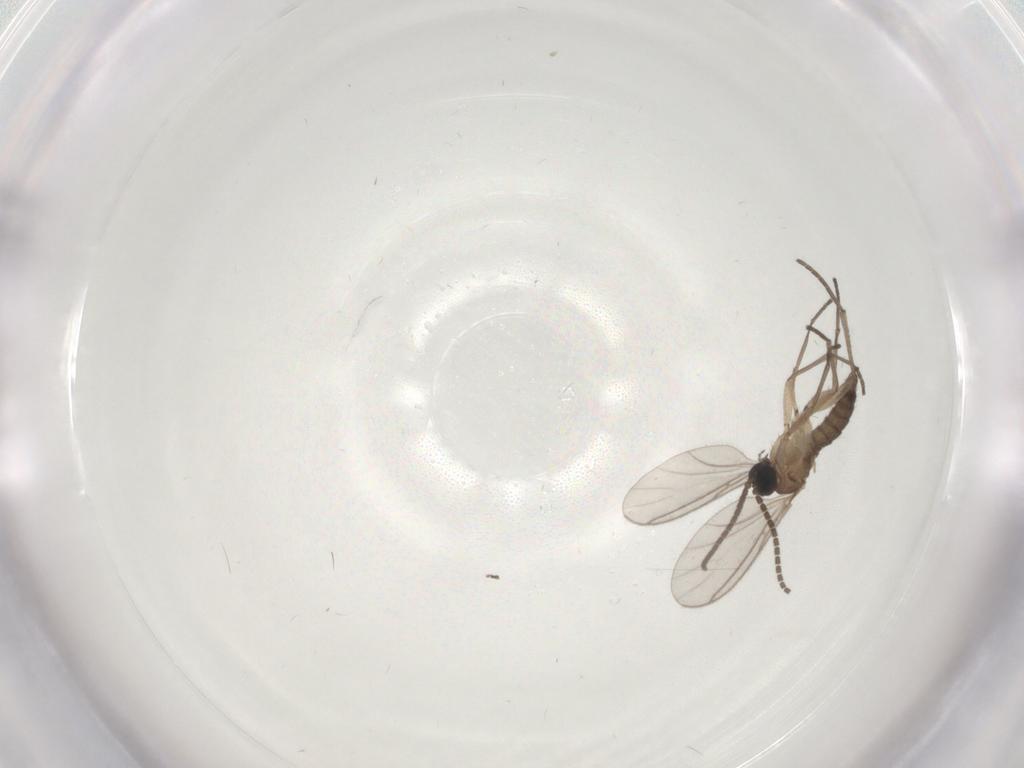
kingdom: Animalia
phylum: Arthropoda
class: Insecta
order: Diptera
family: Sciaridae
